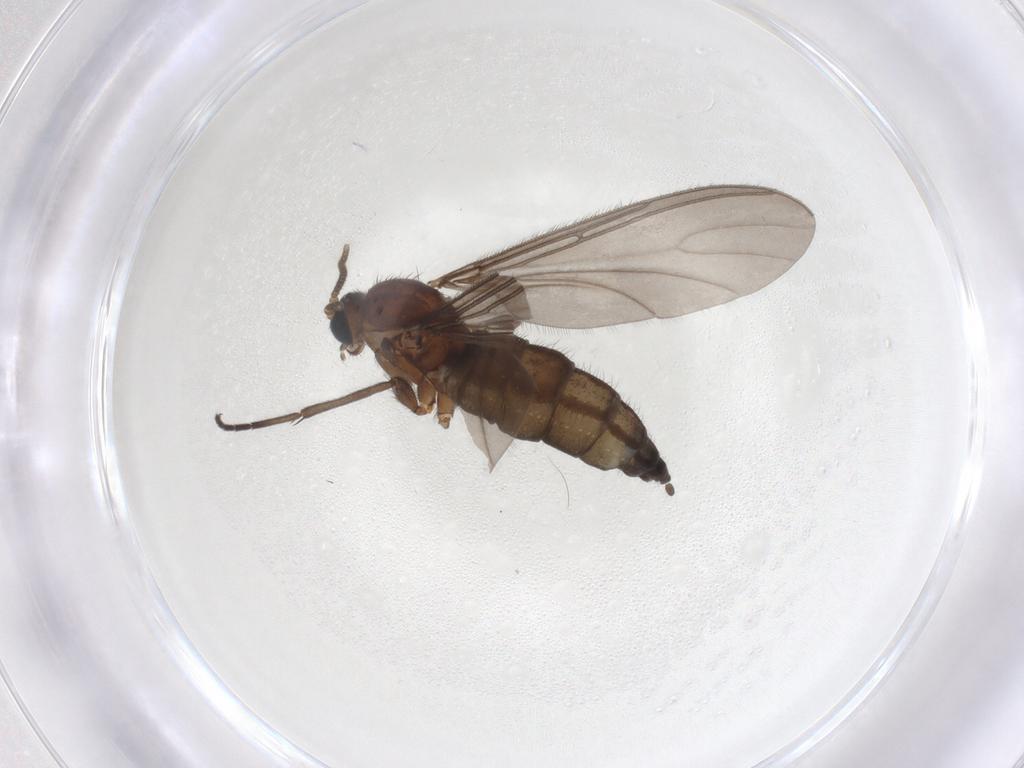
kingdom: Animalia
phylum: Arthropoda
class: Insecta
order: Diptera
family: Sciaridae
